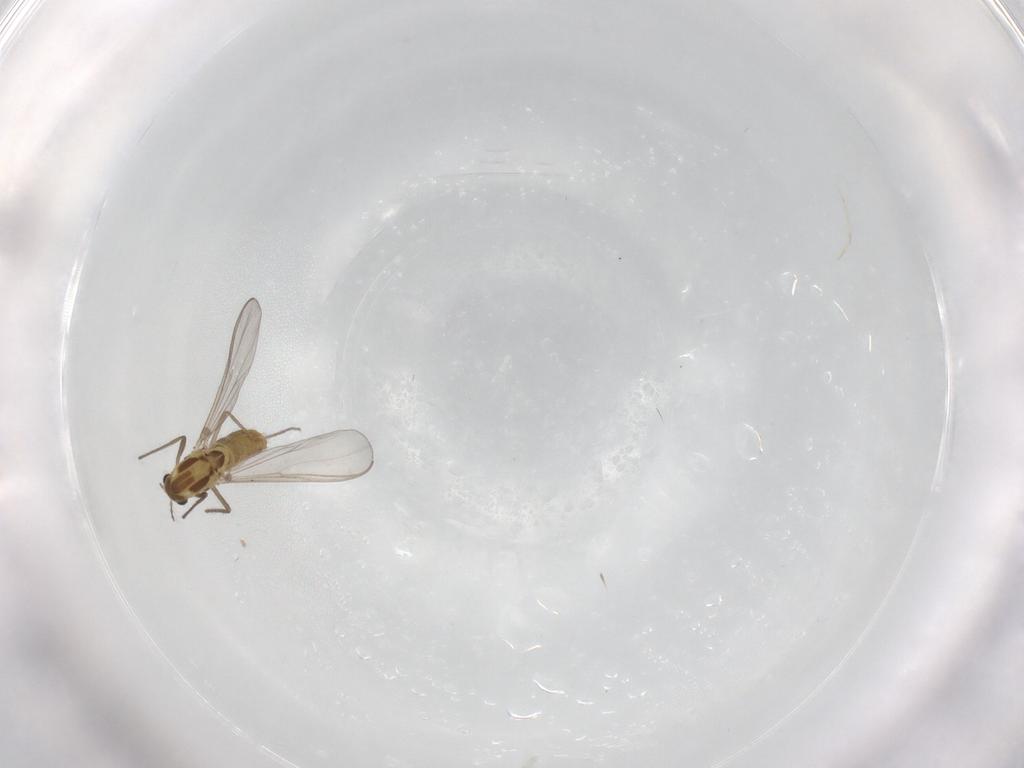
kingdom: Animalia
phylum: Arthropoda
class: Insecta
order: Diptera
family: Chironomidae
